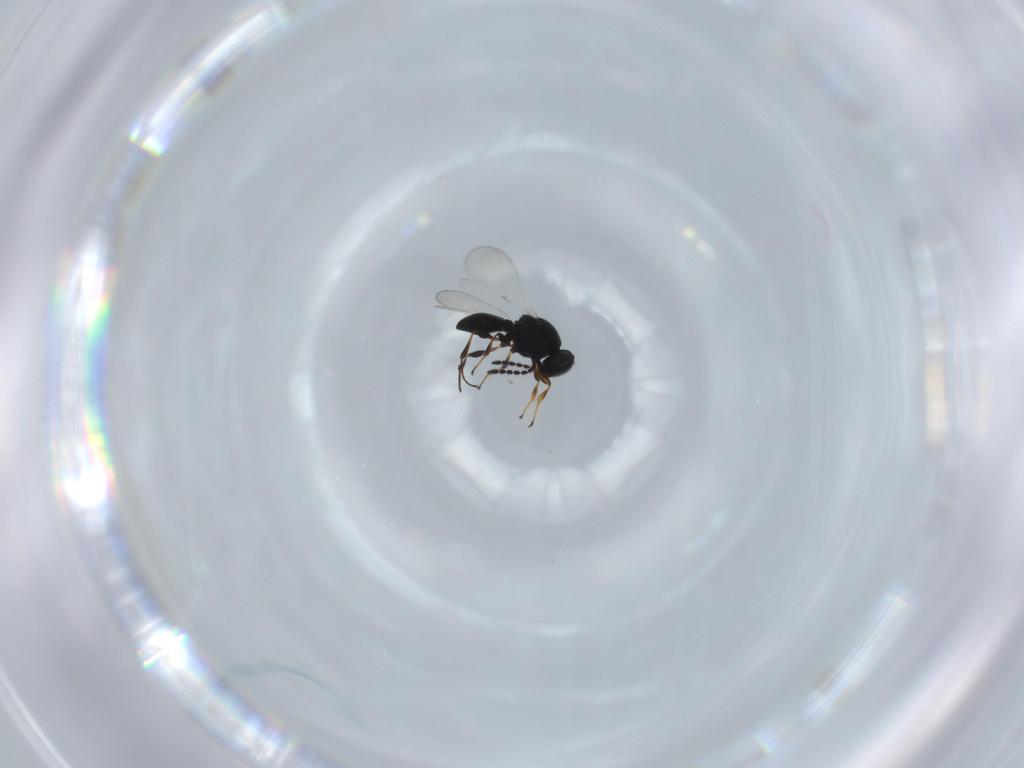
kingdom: Animalia
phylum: Arthropoda
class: Insecta
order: Hymenoptera
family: Platygastridae
